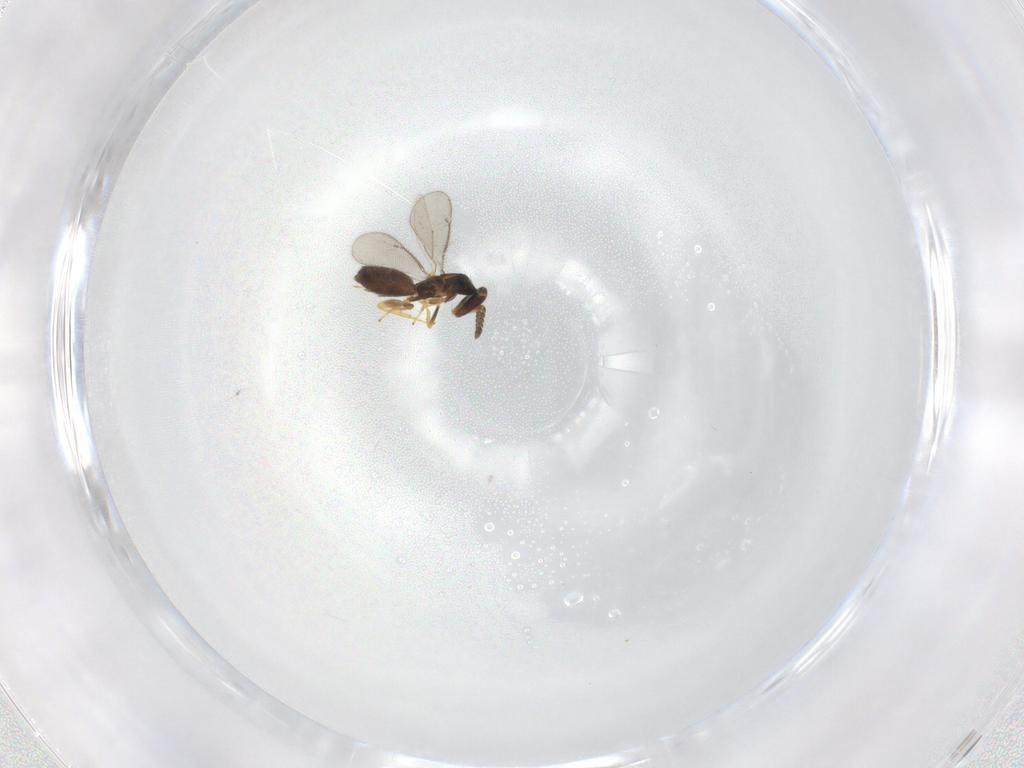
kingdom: Animalia
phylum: Arthropoda
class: Insecta
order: Hymenoptera
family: Eulophidae
